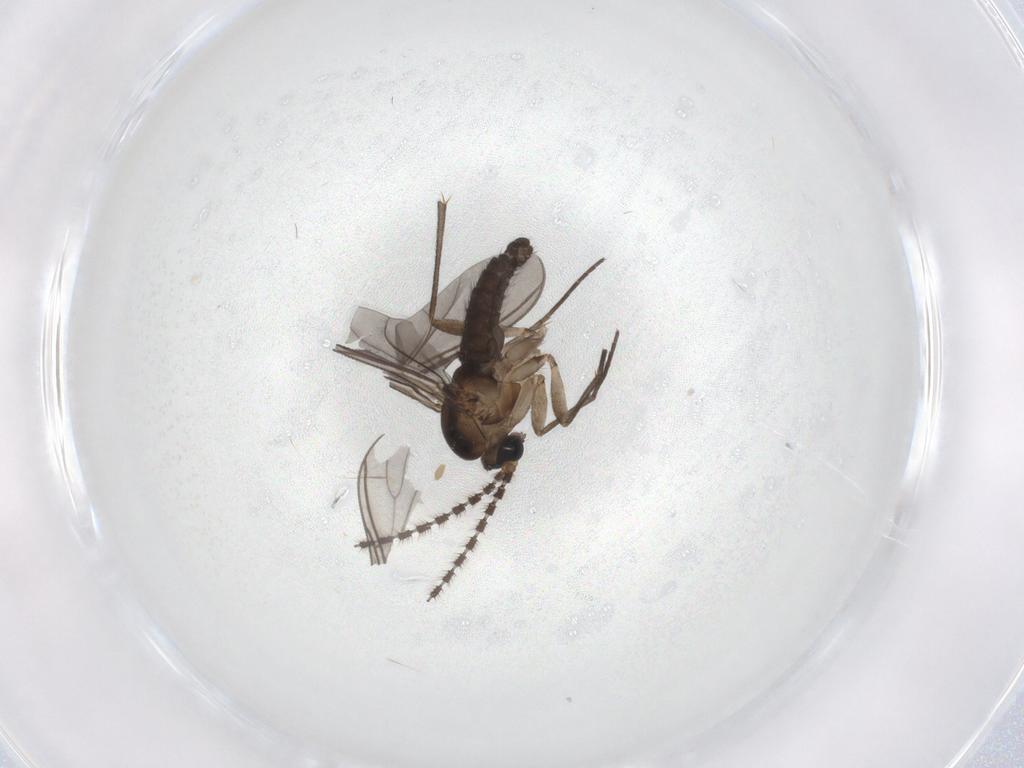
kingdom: Animalia
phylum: Arthropoda
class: Insecta
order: Diptera
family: Sciaridae
